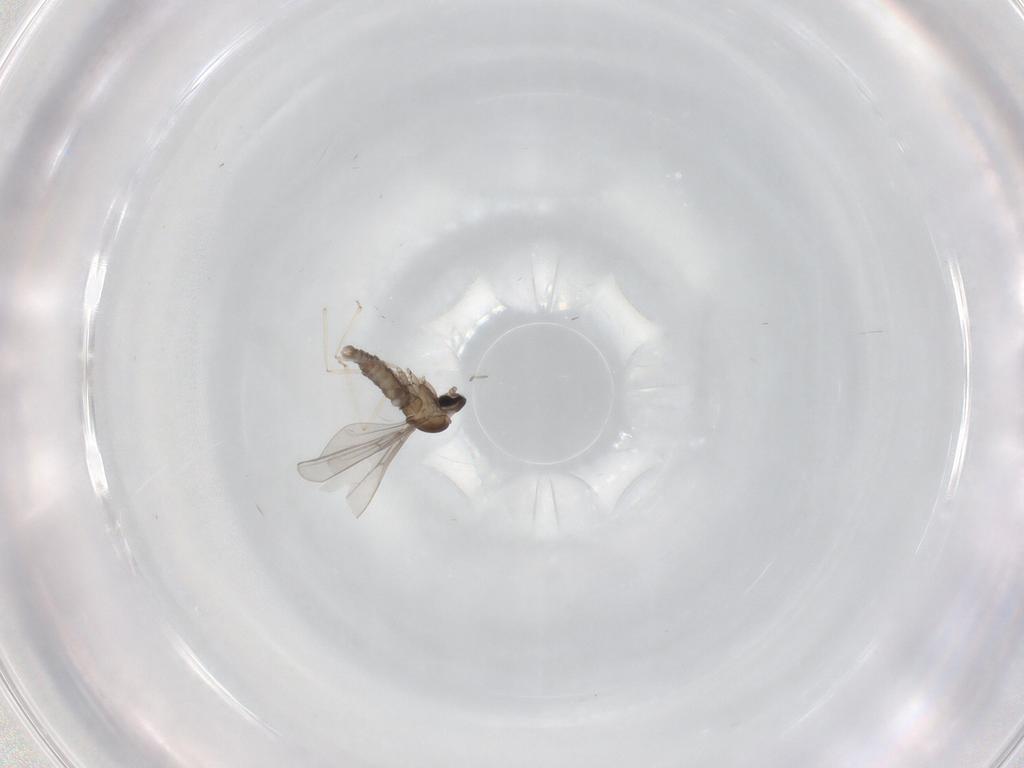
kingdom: Animalia
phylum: Arthropoda
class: Insecta
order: Diptera
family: Cecidomyiidae
